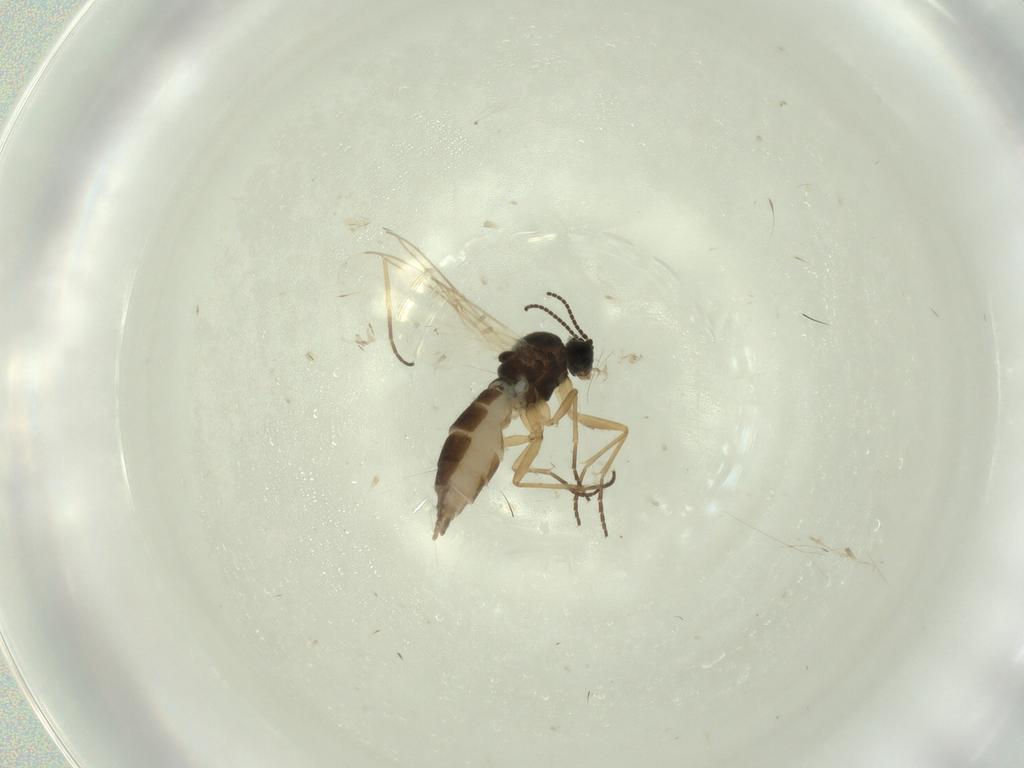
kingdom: Animalia
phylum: Arthropoda
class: Insecta
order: Diptera
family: Sciaridae
